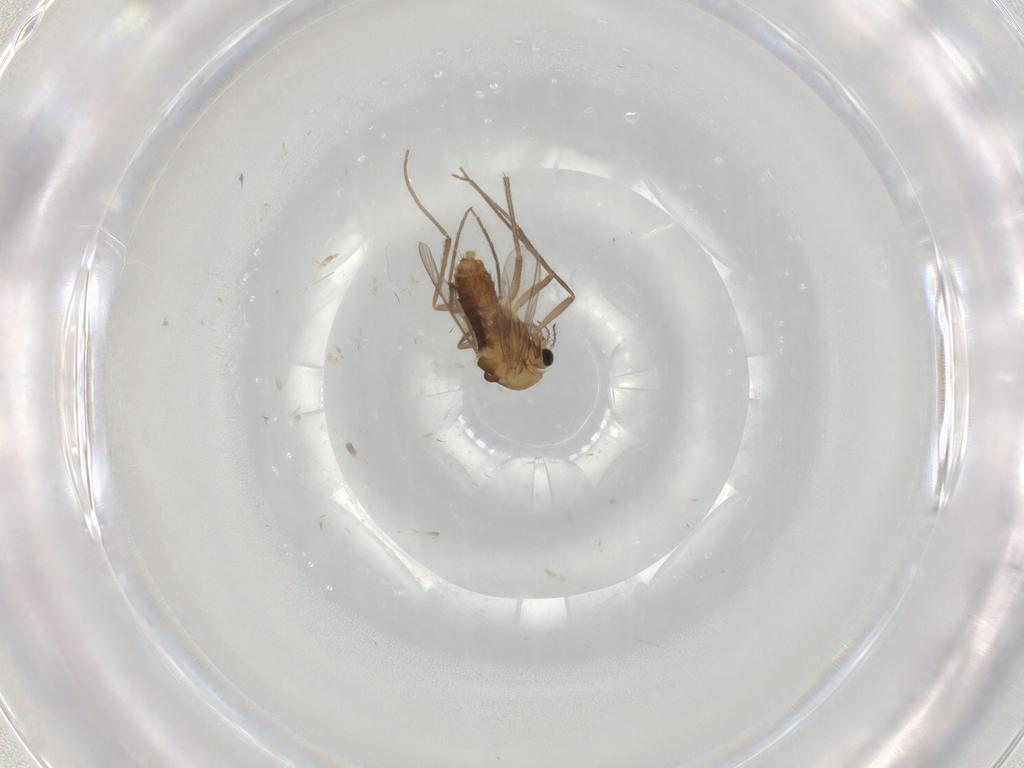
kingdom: Animalia
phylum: Arthropoda
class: Insecta
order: Diptera
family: Chironomidae
